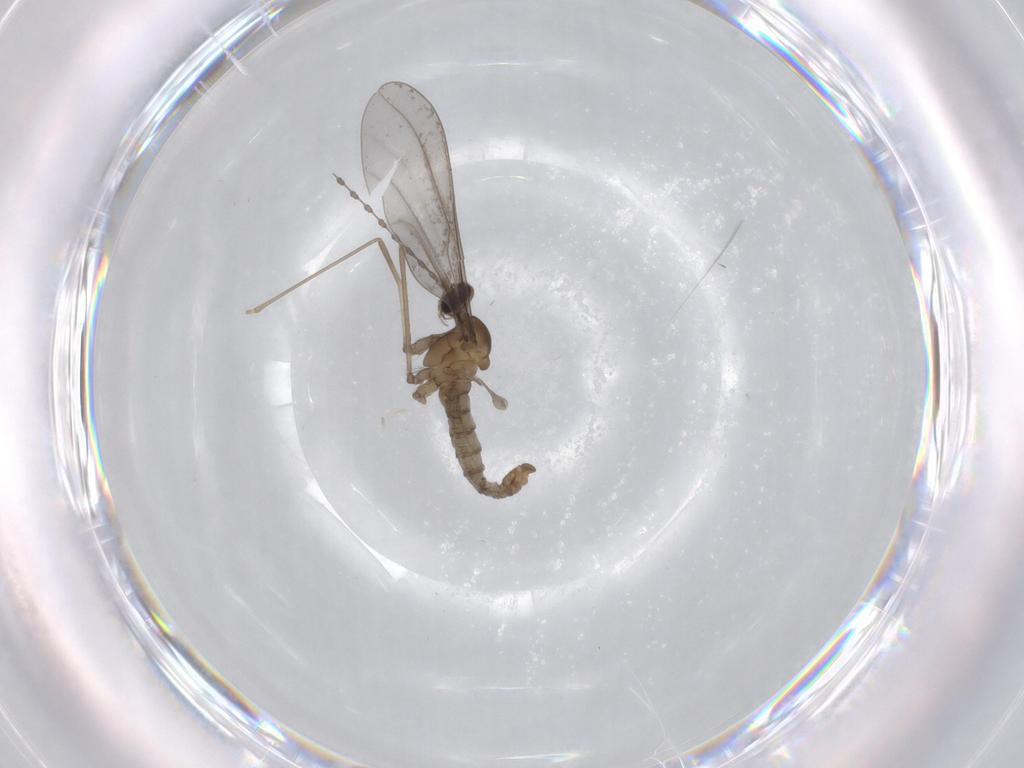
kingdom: Animalia
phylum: Arthropoda
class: Insecta
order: Diptera
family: Cecidomyiidae
